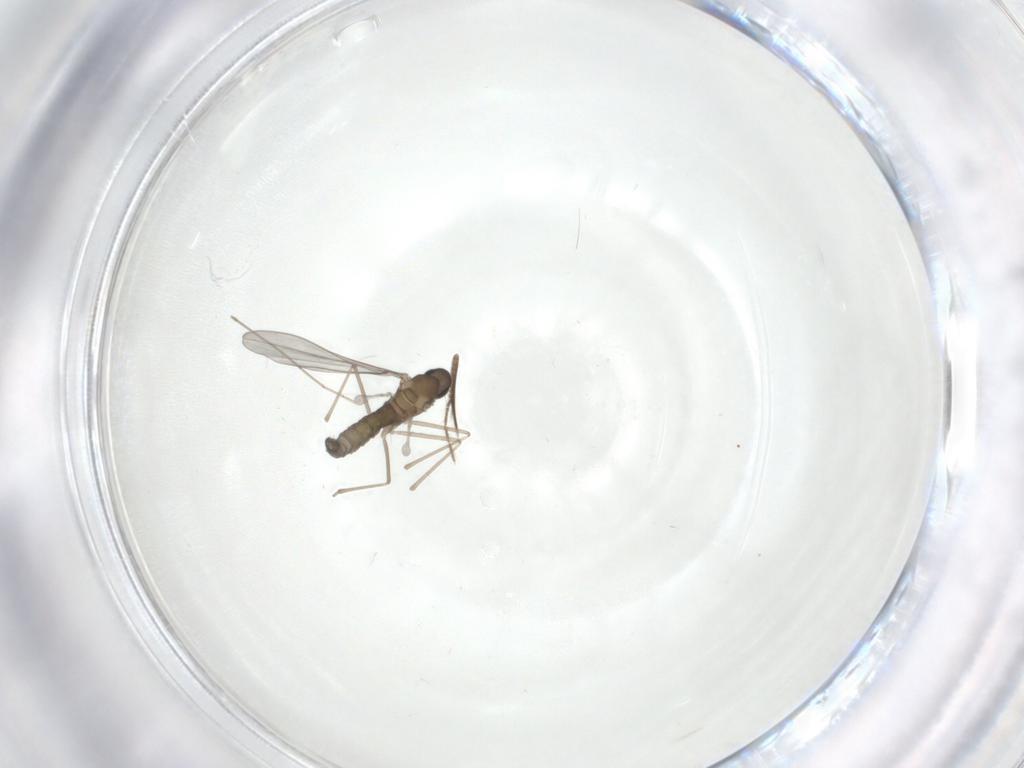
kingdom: Animalia
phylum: Arthropoda
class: Insecta
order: Diptera
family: Cecidomyiidae
